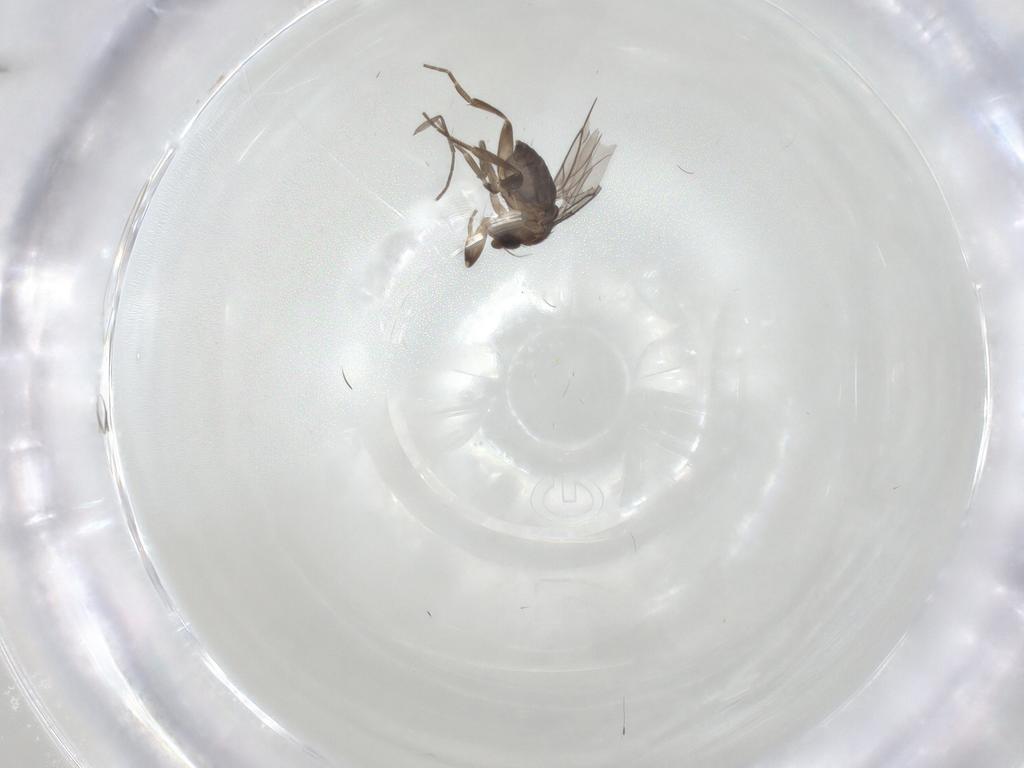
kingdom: Animalia
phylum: Arthropoda
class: Insecta
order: Diptera
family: Phoridae
